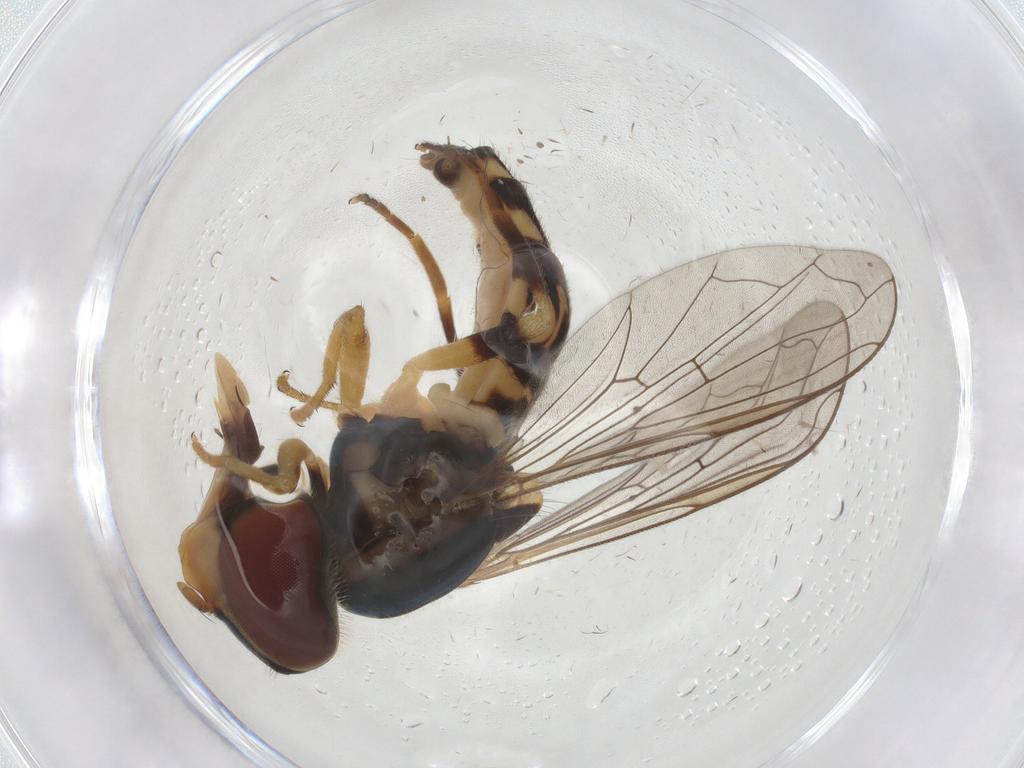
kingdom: Animalia
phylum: Arthropoda
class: Insecta
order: Diptera
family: Syrphidae
